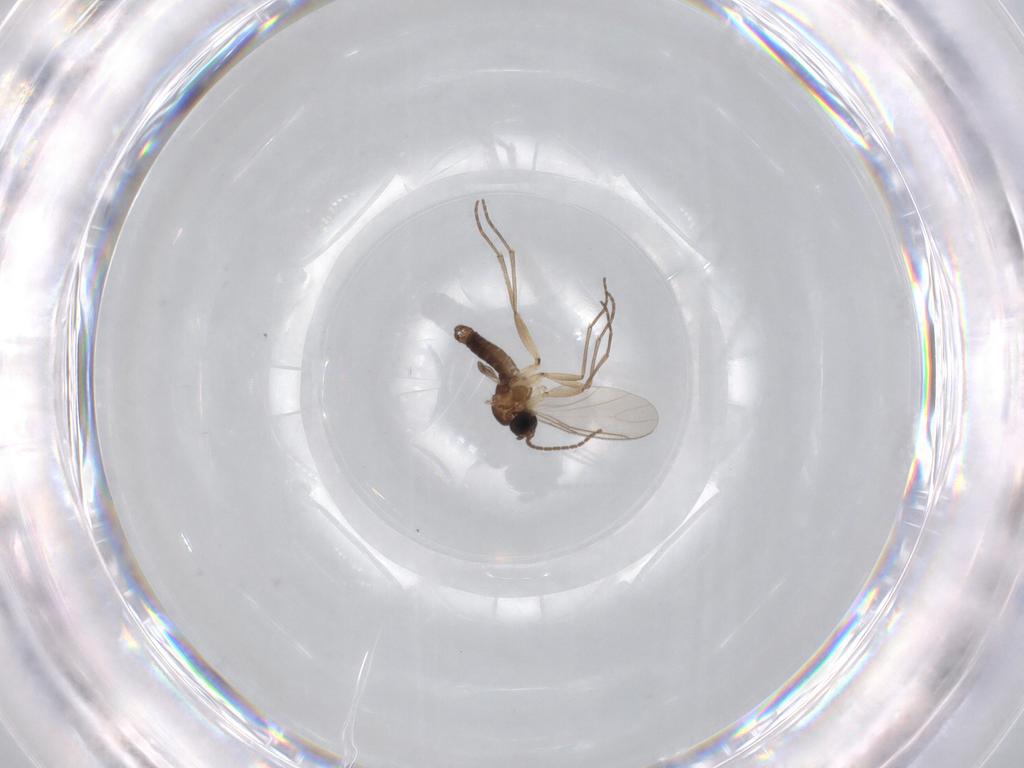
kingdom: Animalia
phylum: Arthropoda
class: Insecta
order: Diptera
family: Sciaridae
